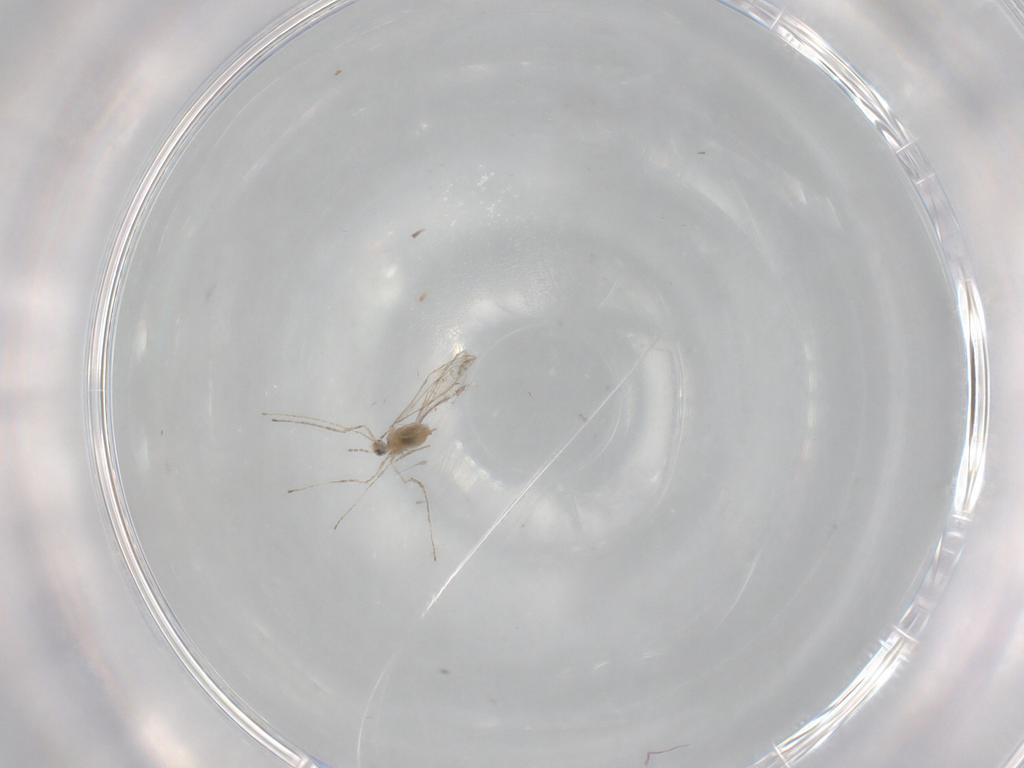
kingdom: Animalia
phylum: Arthropoda
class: Insecta
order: Diptera
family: Cecidomyiidae
